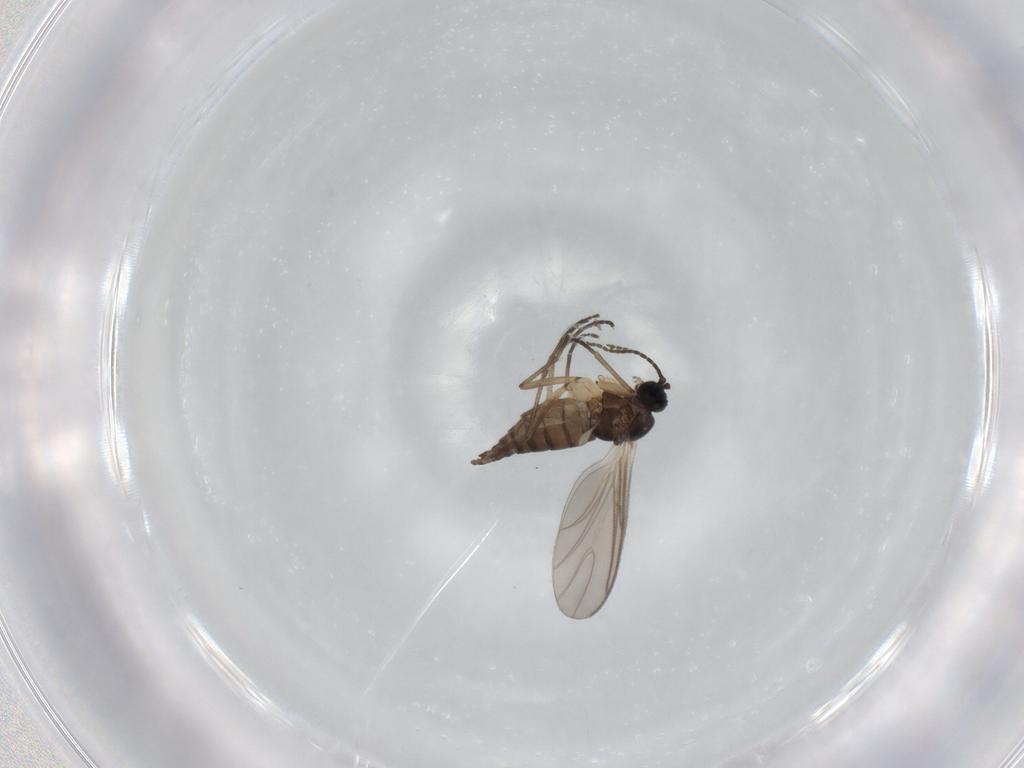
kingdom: Animalia
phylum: Arthropoda
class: Insecta
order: Diptera
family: Sciaridae
